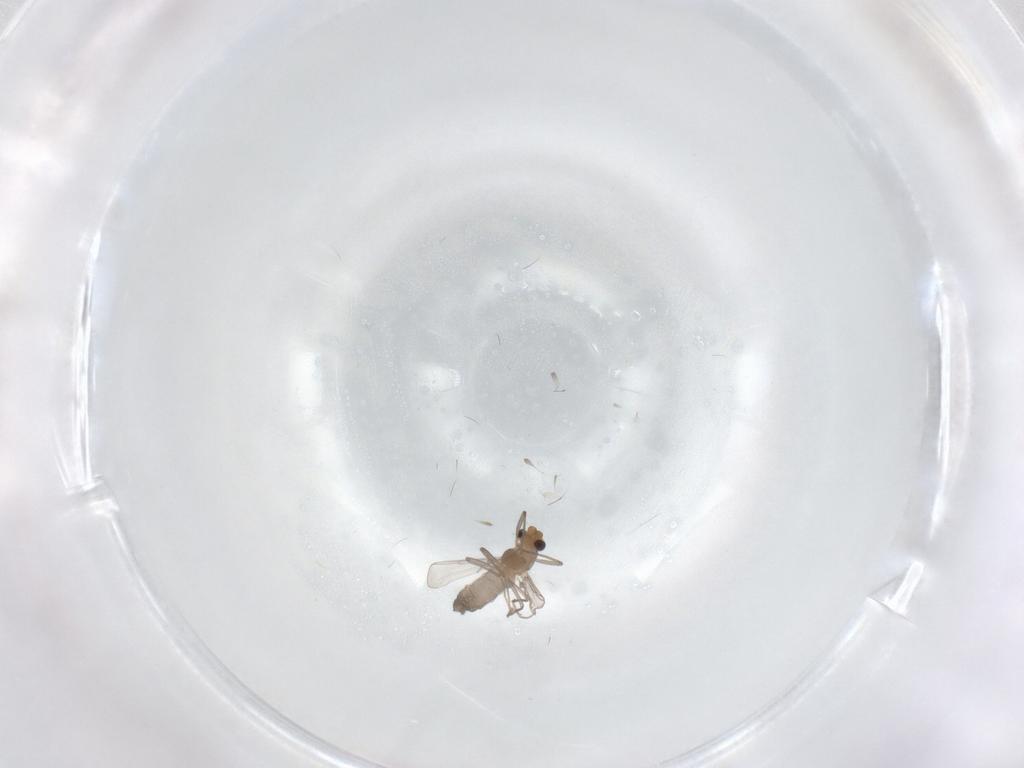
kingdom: Animalia
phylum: Arthropoda
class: Insecta
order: Diptera
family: Chironomidae
